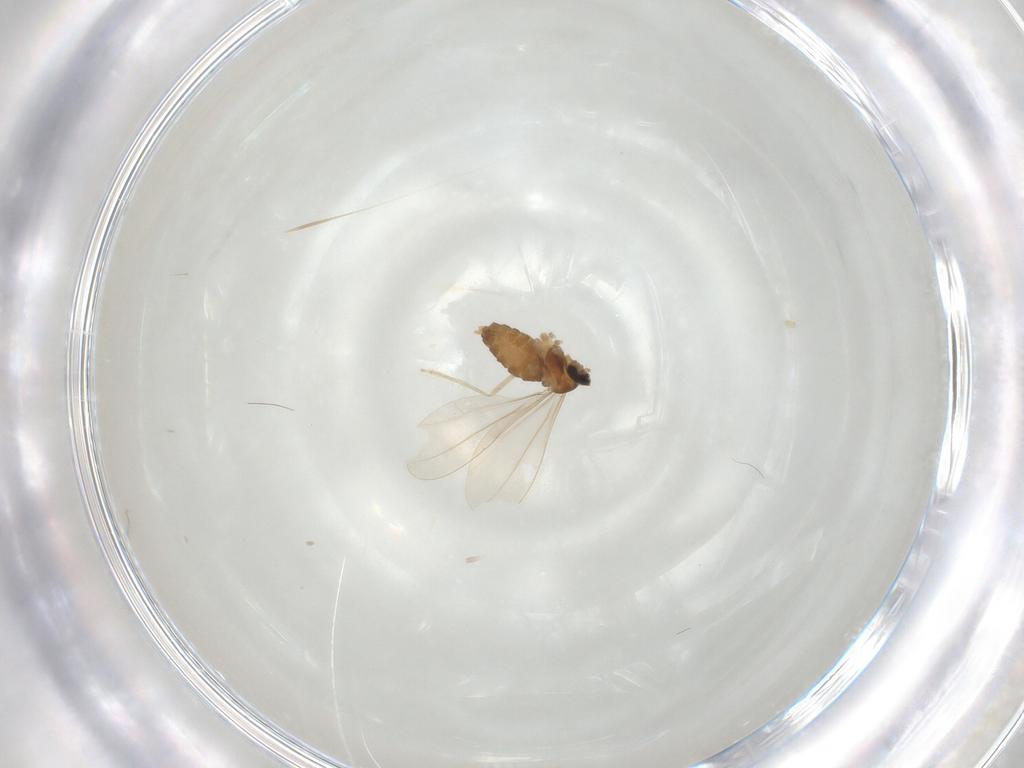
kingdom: Animalia
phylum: Arthropoda
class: Insecta
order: Diptera
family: Cecidomyiidae
